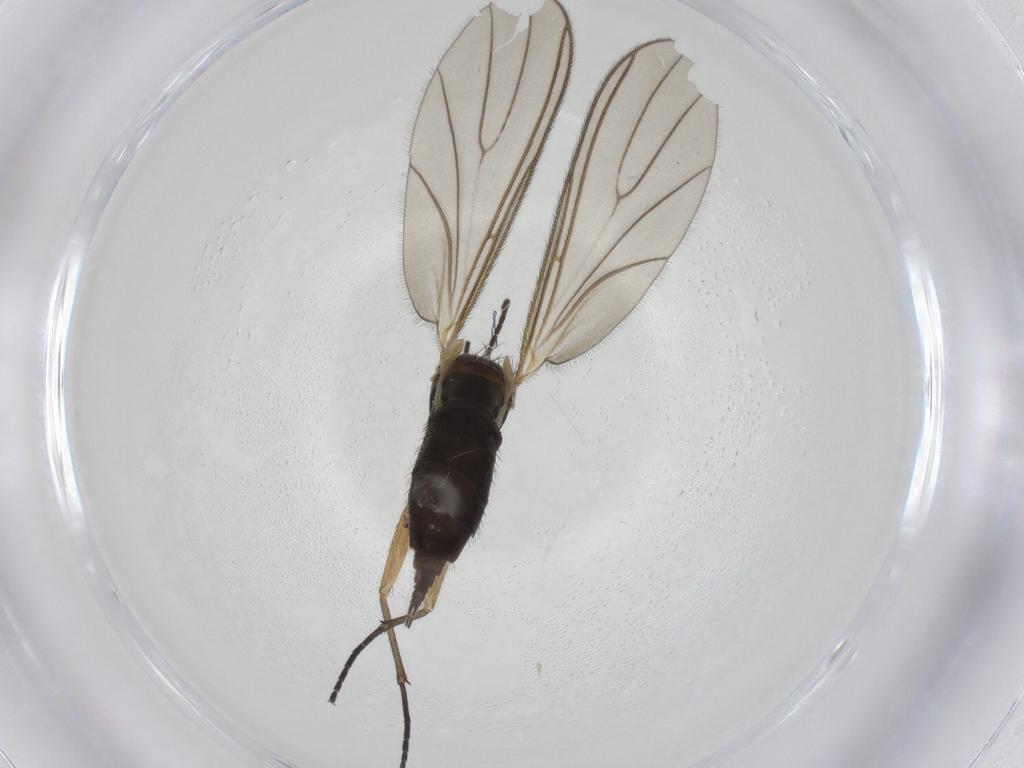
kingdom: Animalia
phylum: Arthropoda
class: Insecta
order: Diptera
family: Sciaridae
